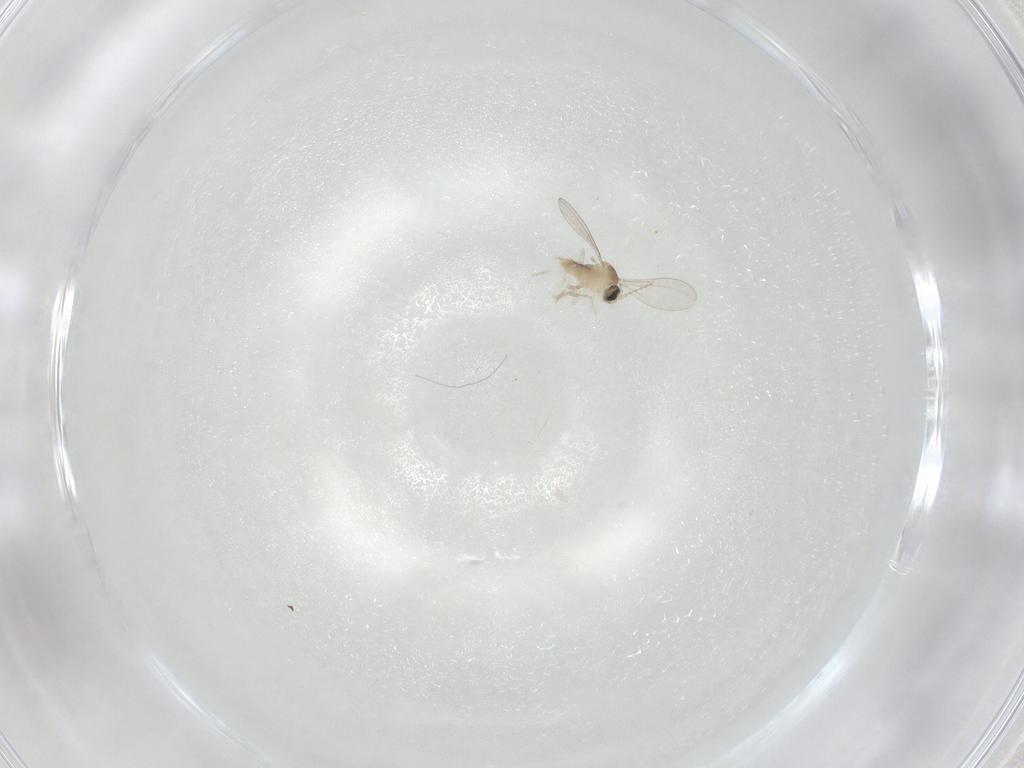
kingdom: Animalia
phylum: Arthropoda
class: Insecta
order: Diptera
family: Cecidomyiidae
